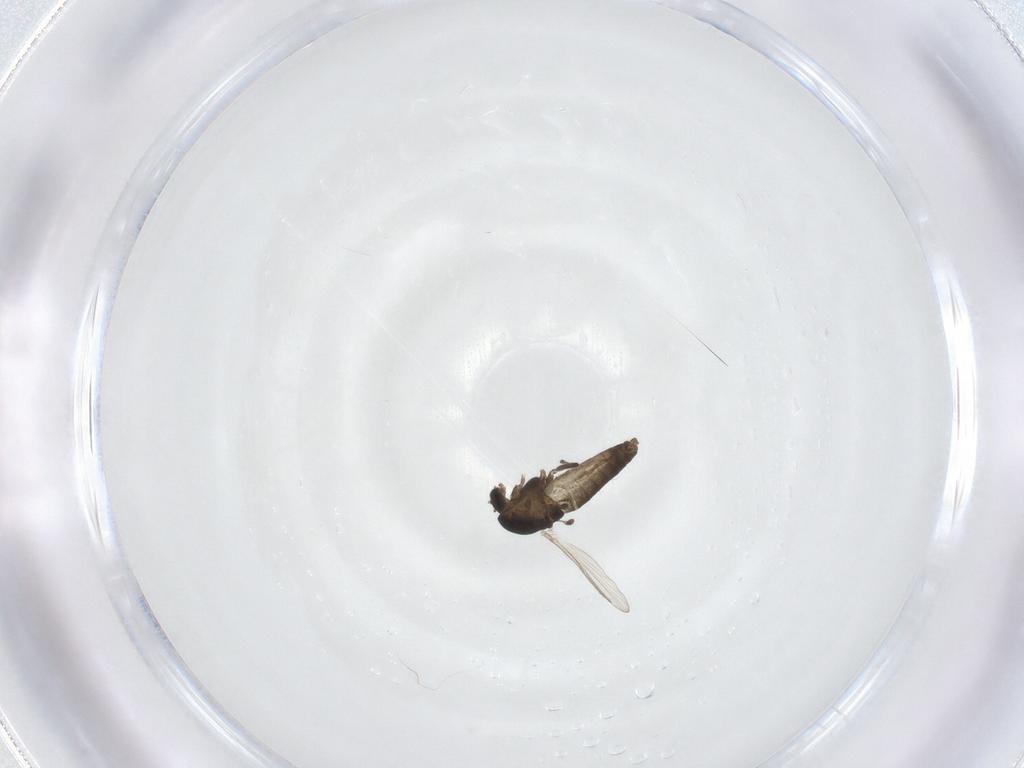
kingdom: Animalia
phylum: Arthropoda
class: Insecta
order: Diptera
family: Chironomidae
